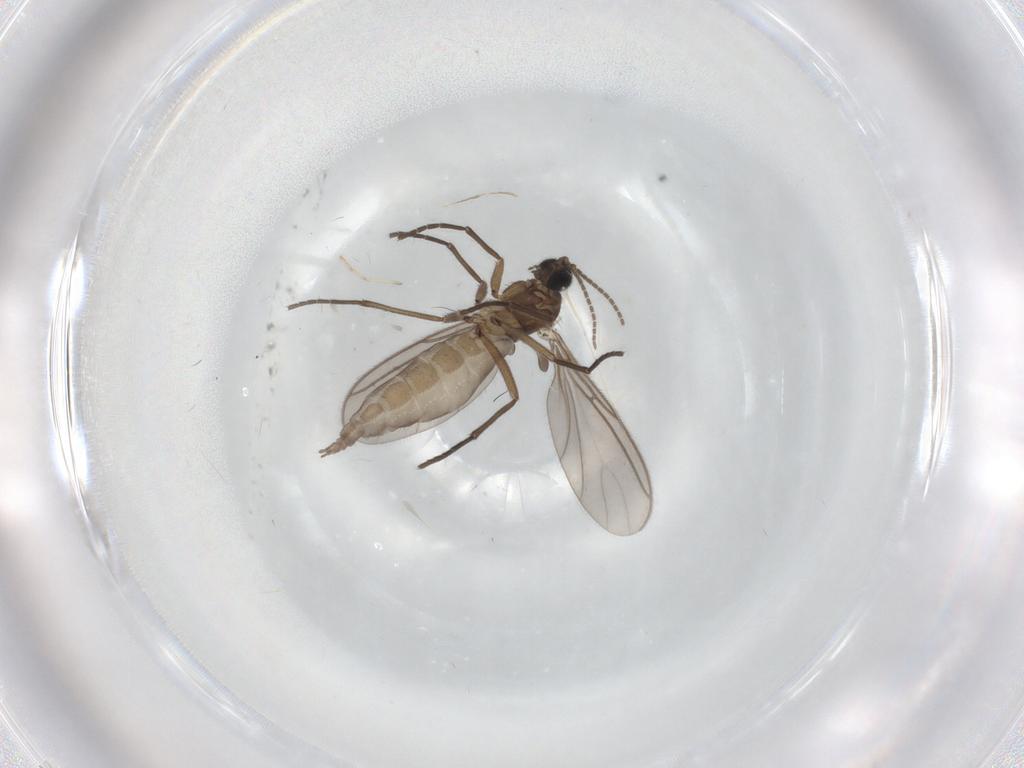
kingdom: Animalia
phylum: Arthropoda
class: Insecta
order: Diptera
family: Sciaridae
